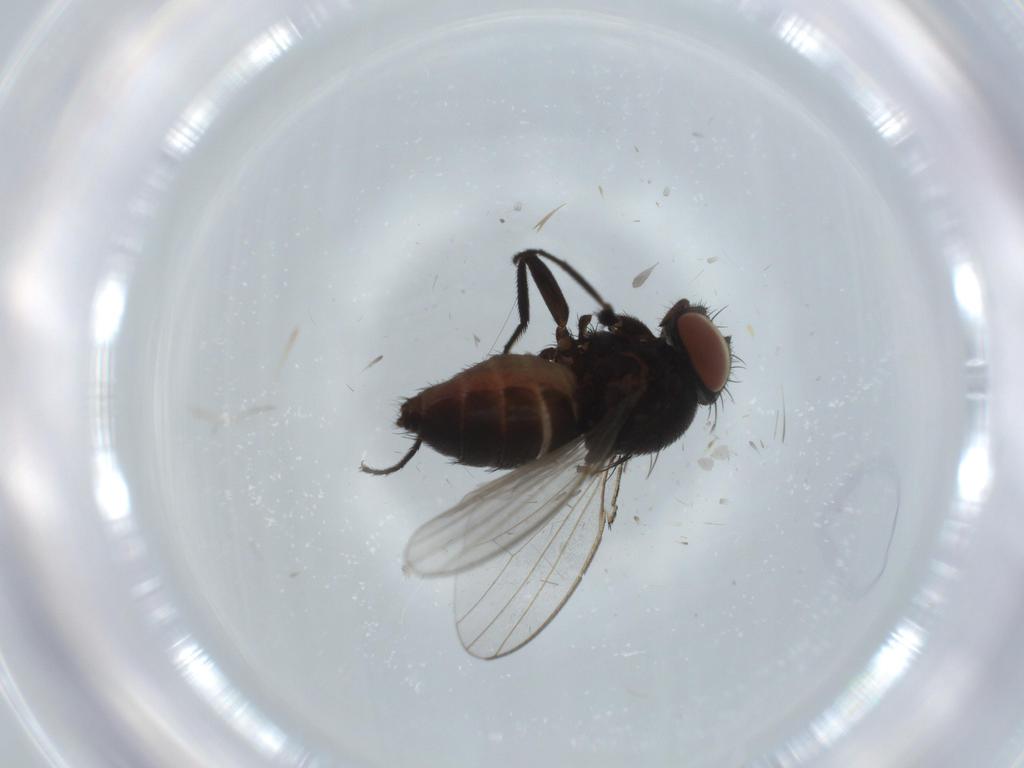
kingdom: Animalia
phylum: Arthropoda
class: Insecta
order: Diptera
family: Milichiidae
